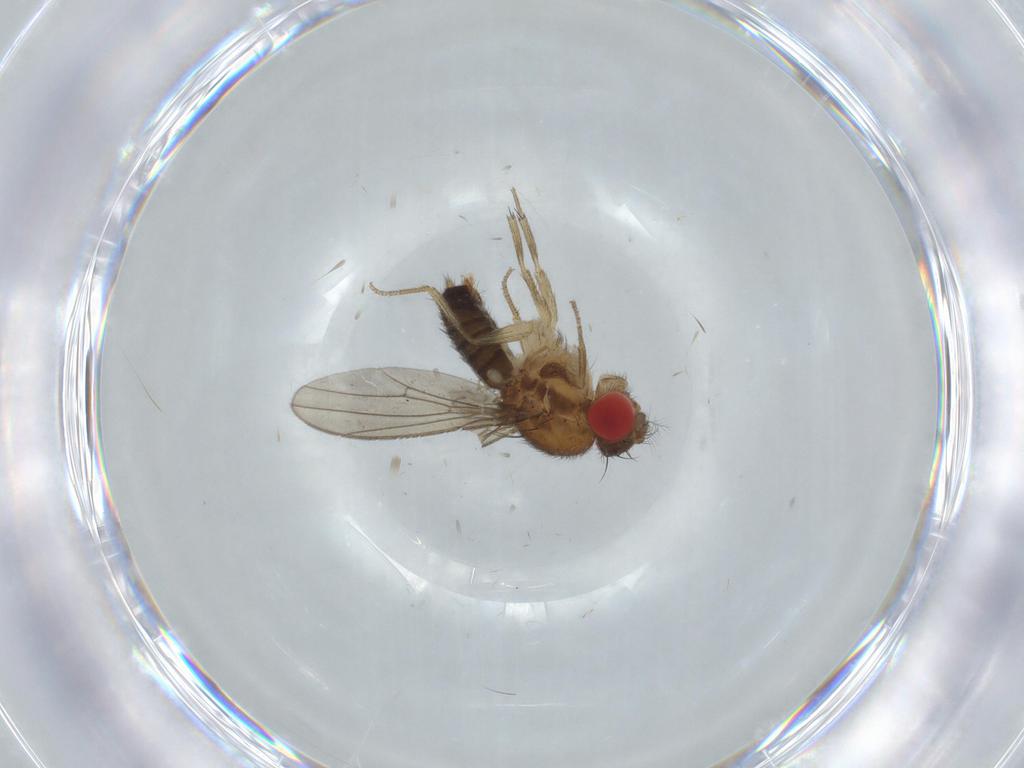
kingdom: Animalia
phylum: Arthropoda
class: Insecta
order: Diptera
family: Drosophilidae
